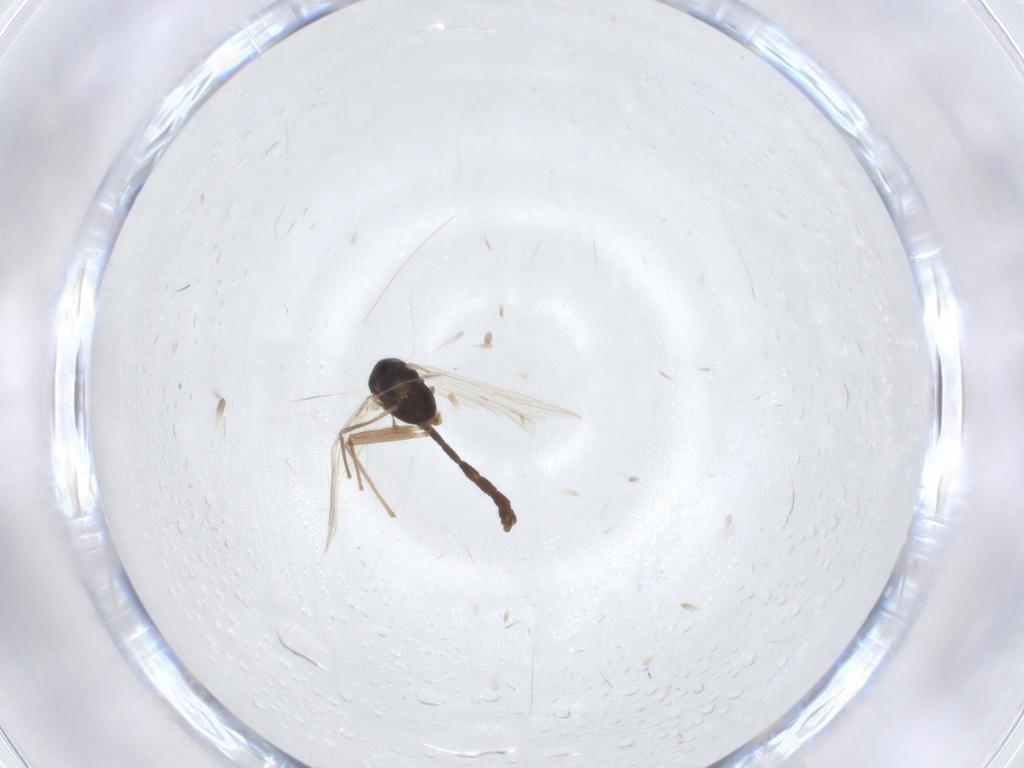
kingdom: Animalia
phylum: Arthropoda
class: Insecta
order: Diptera
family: Chironomidae
